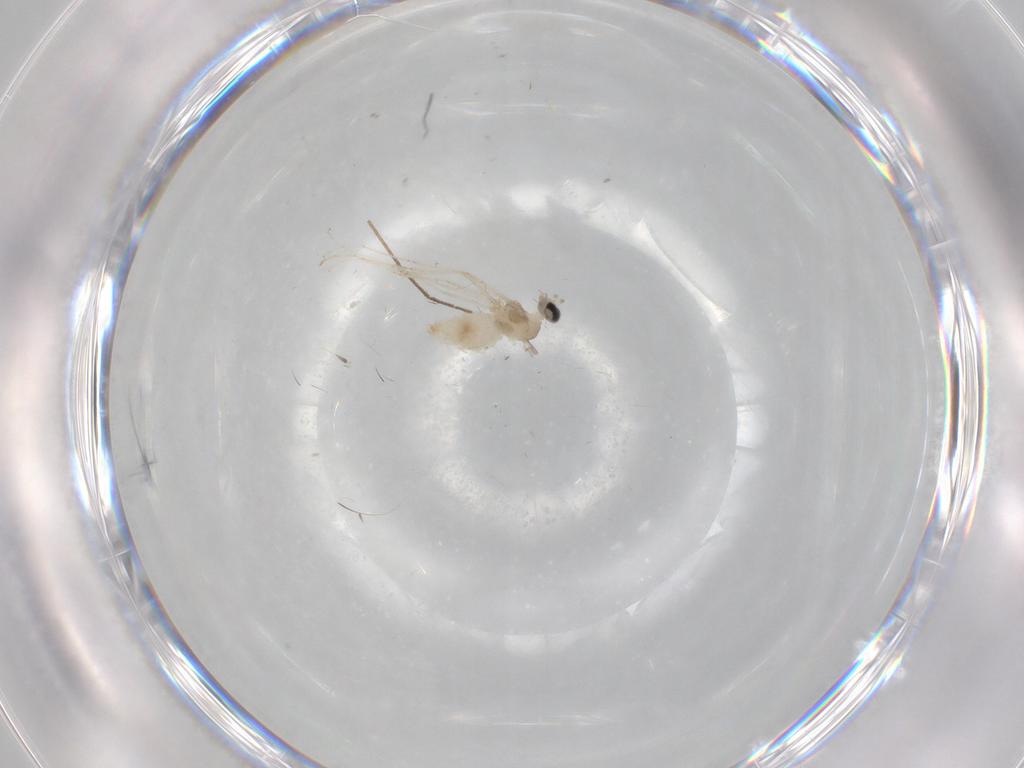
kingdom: Animalia
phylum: Arthropoda
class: Insecta
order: Diptera
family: Chironomidae
